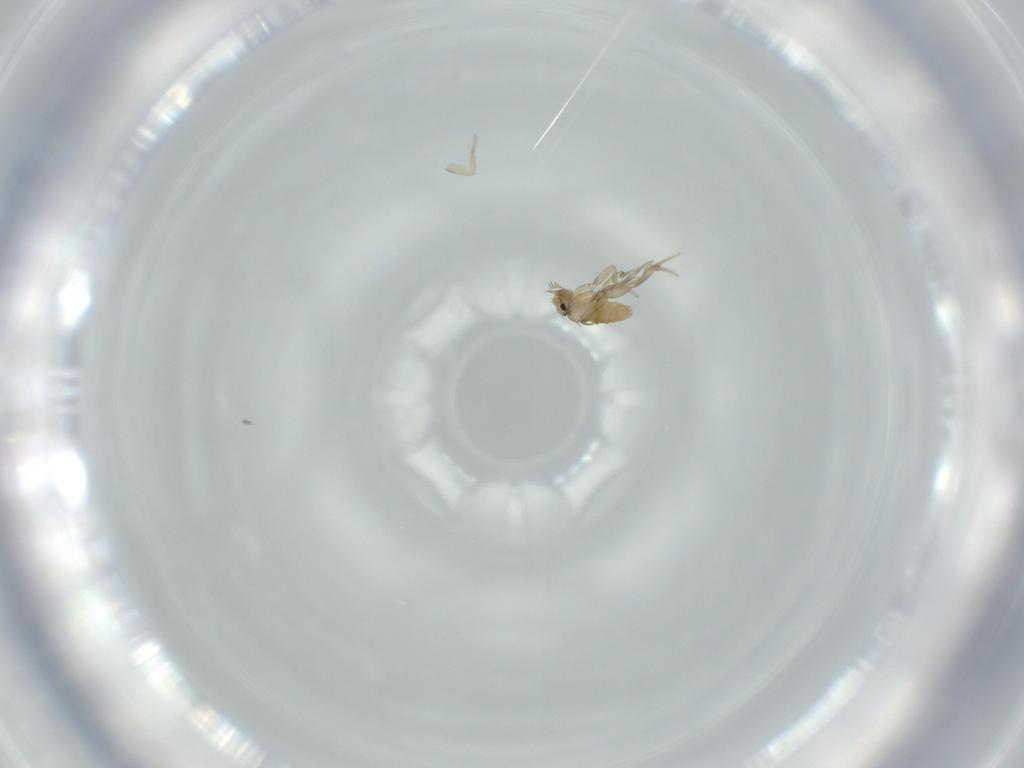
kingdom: Animalia
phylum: Arthropoda
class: Insecta
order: Diptera
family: Phoridae
